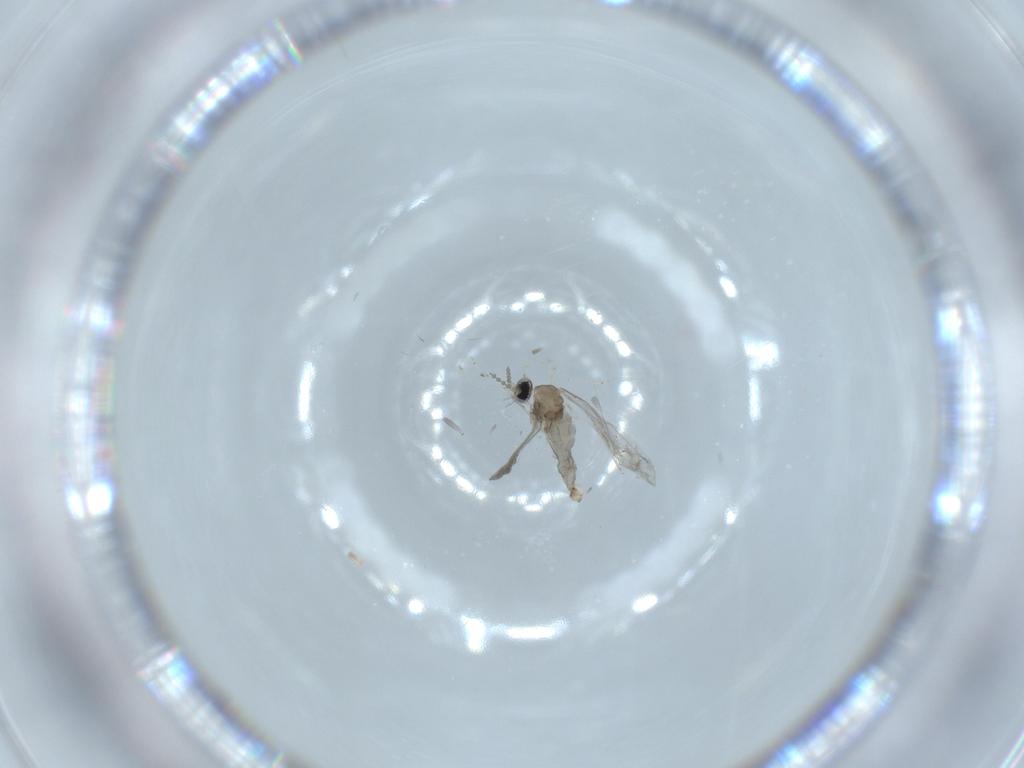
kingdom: Animalia
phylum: Arthropoda
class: Insecta
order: Diptera
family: Cecidomyiidae
